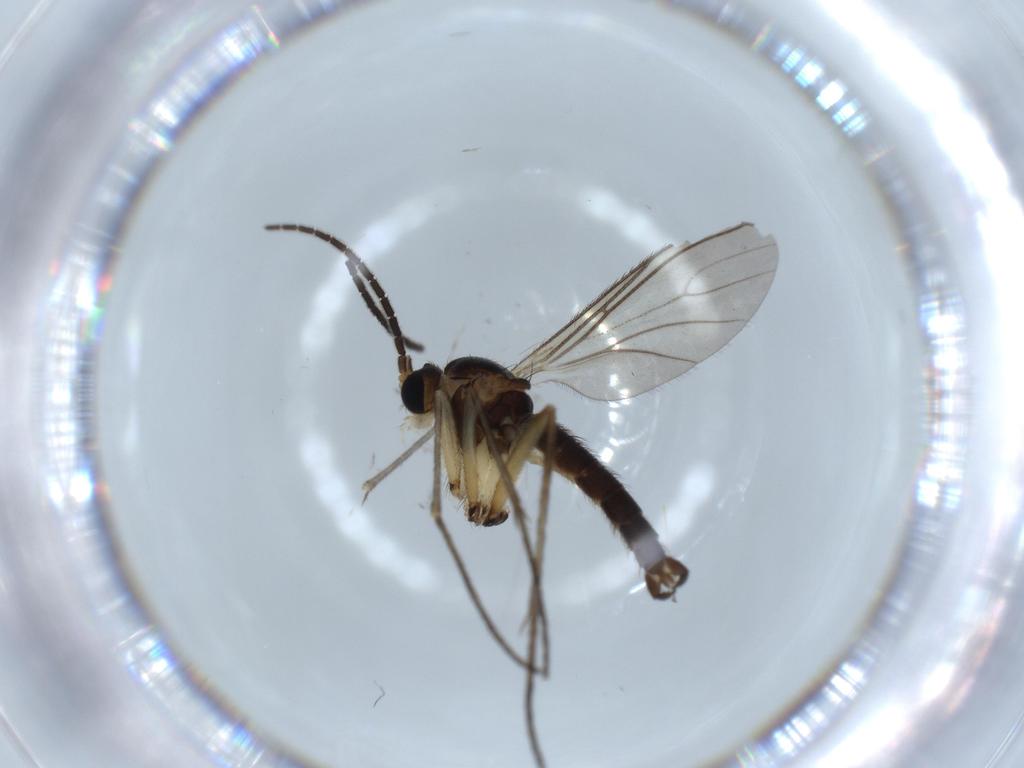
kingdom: Animalia
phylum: Arthropoda
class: Insecta
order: Diptera
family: Sciaridae
